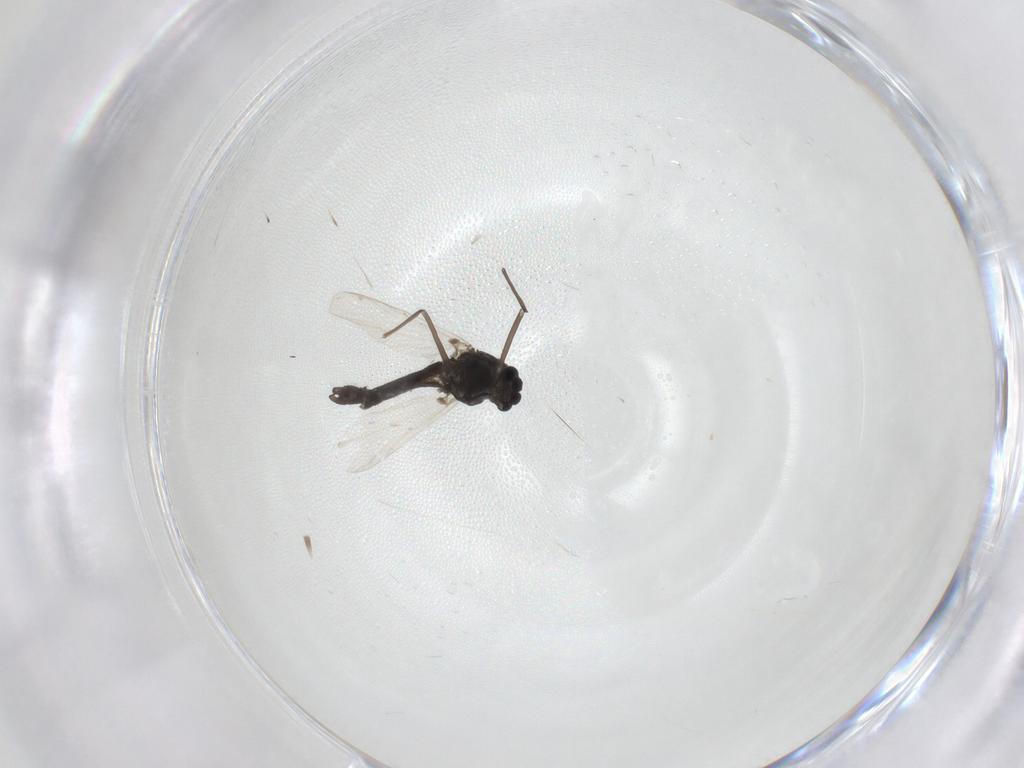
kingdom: Animalia
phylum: Arthropoda
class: Insecta
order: Diptera
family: Chironomidae
